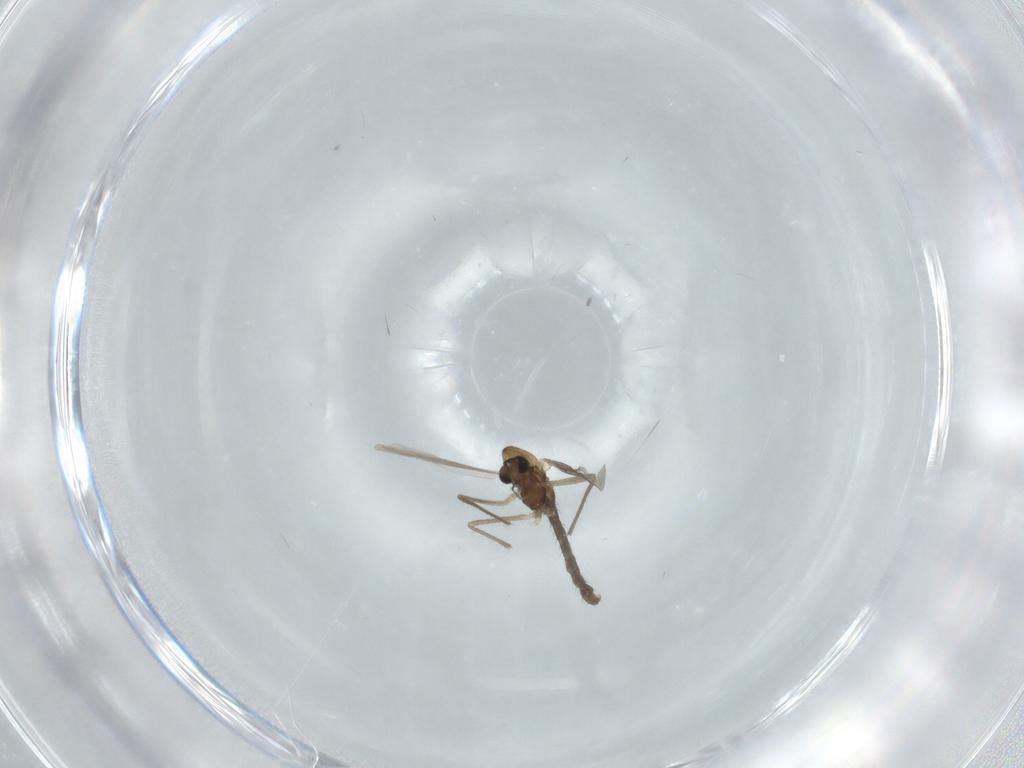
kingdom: Animalia
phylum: Arthropoda
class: Insecta
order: Diptera
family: Chironomidae
